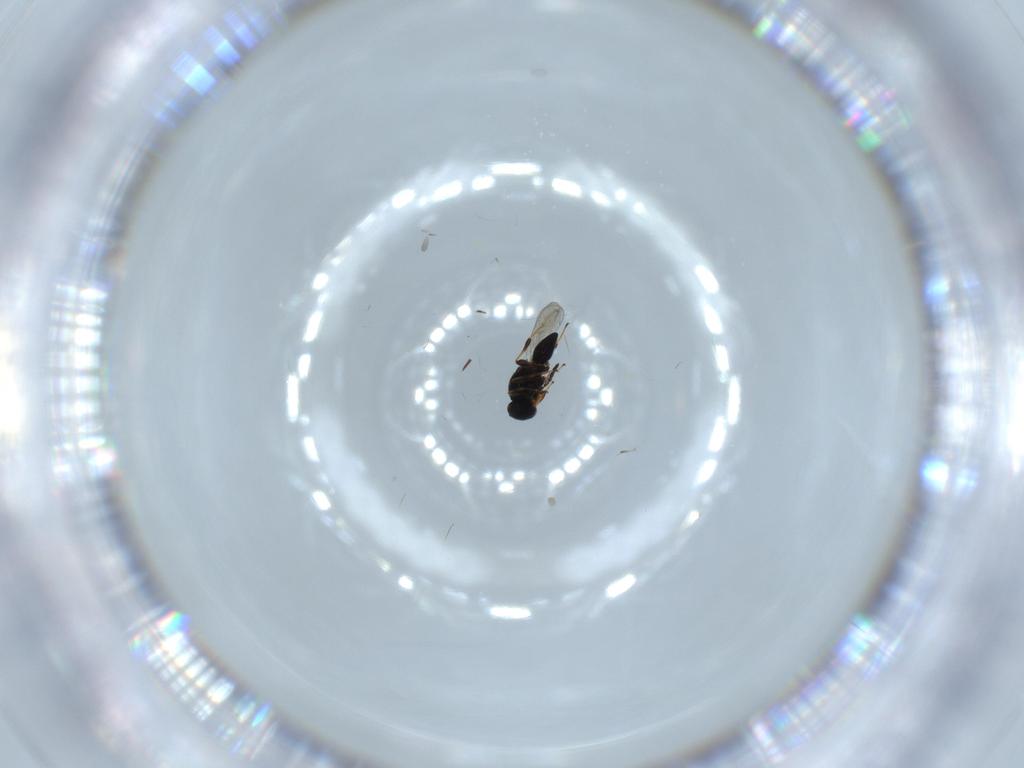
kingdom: Animalia
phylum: Arthropoda
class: Insecta
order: Hymenoptera
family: Platygastridae
